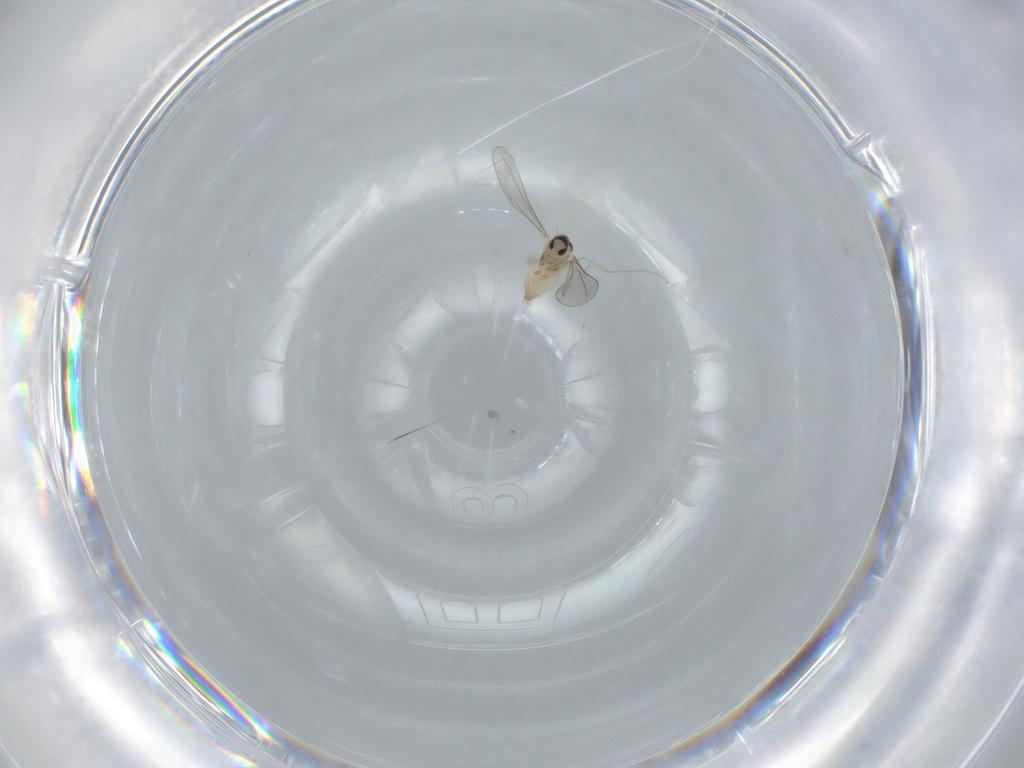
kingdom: Animalia
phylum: Arthropoda
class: Insecta
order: Diptera
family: Cecidomyiidae
